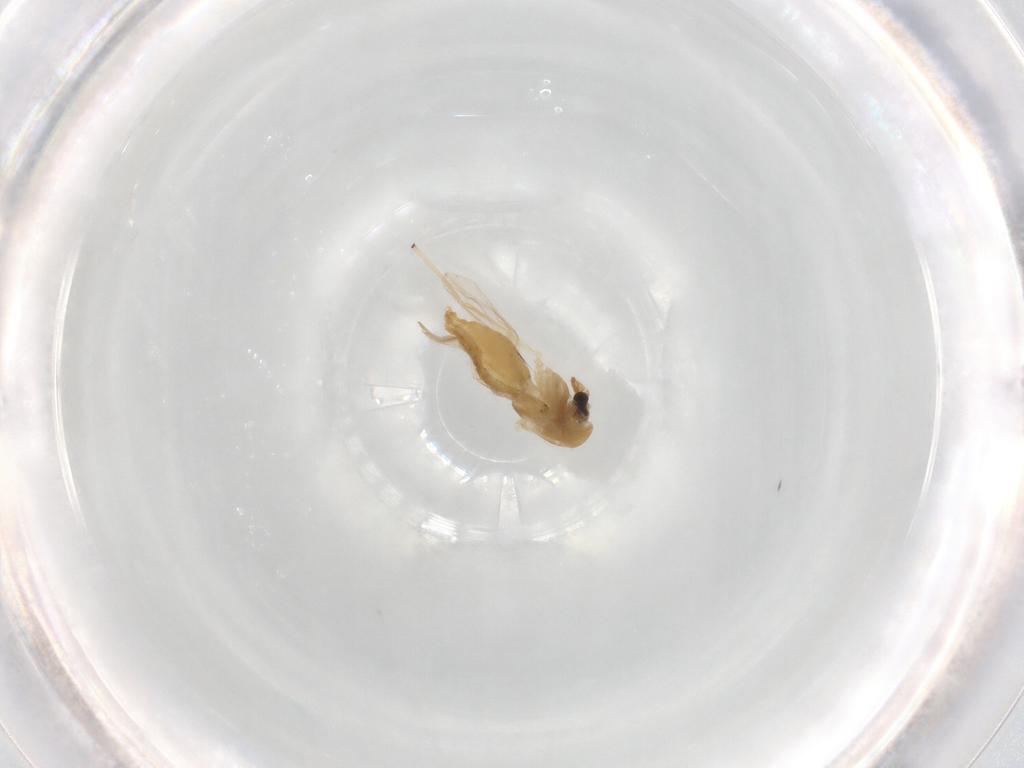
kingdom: Animalia
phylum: Arthropoda
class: Insecta
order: Diptera
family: Chironomidae
